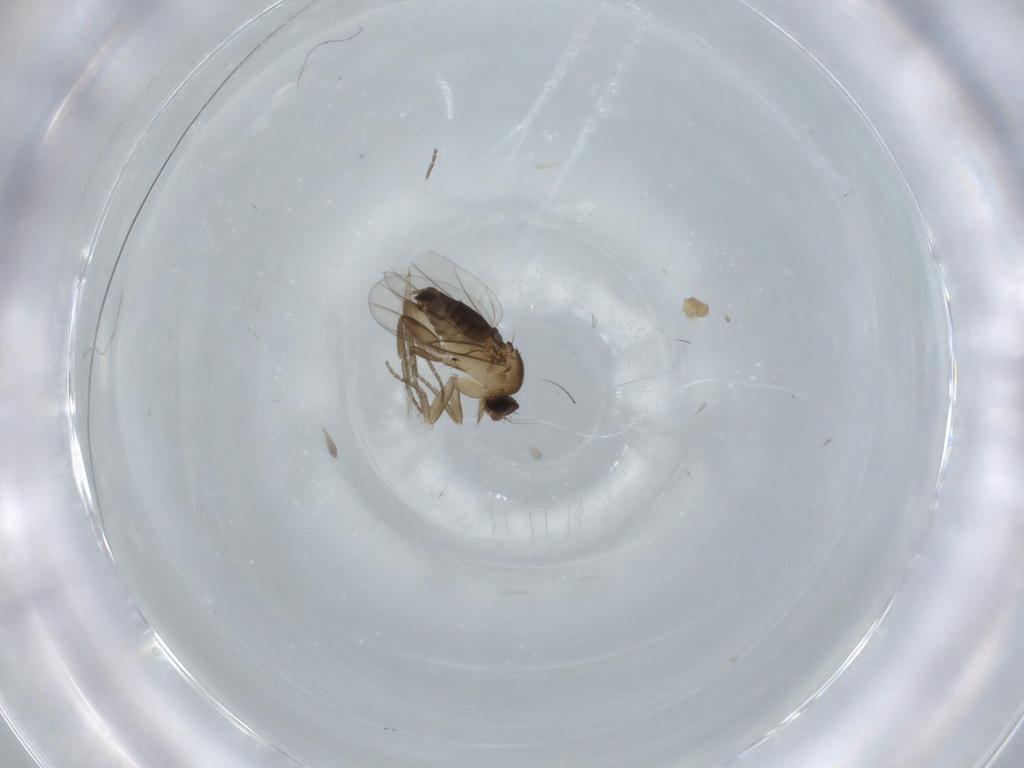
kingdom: Animalia
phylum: Arthropoda
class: Insecta
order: Diptera
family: Phoridae
